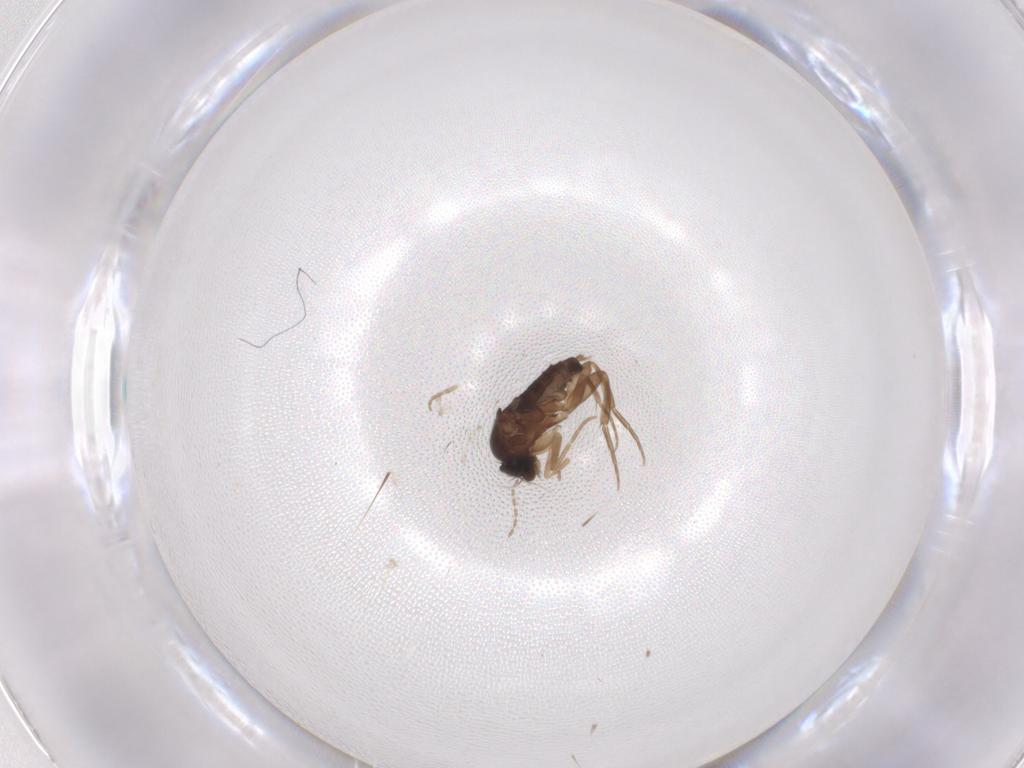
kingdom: Animalia
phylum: Arthropoda
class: Insecta
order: Diptera
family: Phoridae
